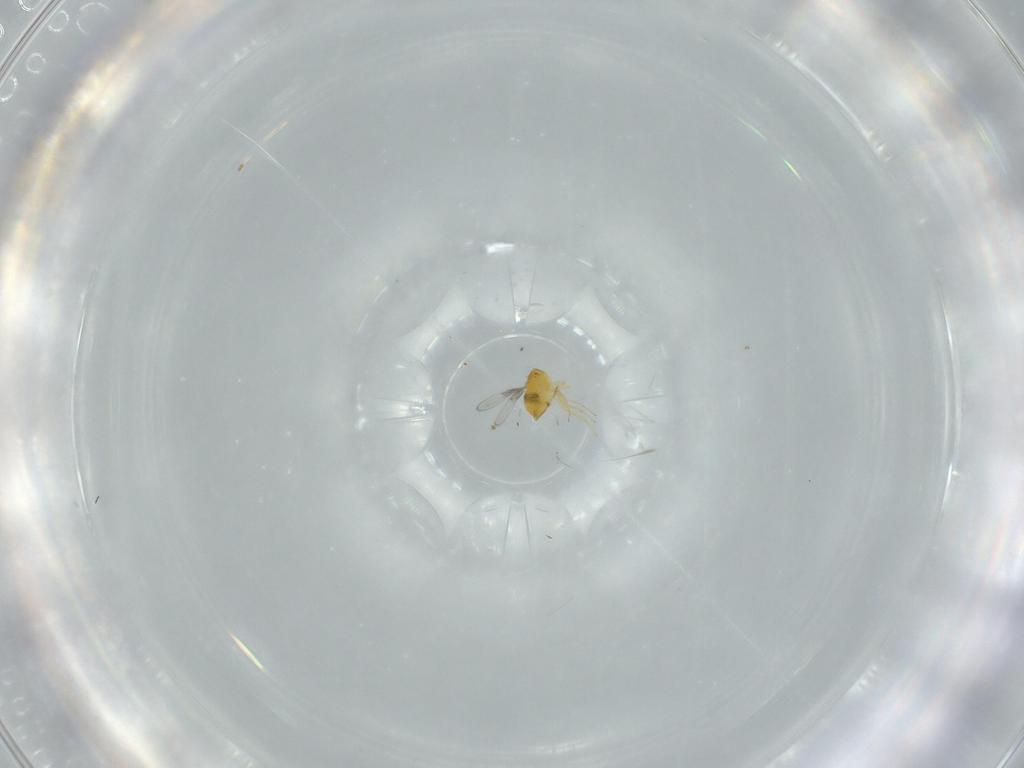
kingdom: Animalia
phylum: Arthropoda
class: Insecta
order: Hymenoptera
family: Trichogrammatidae
